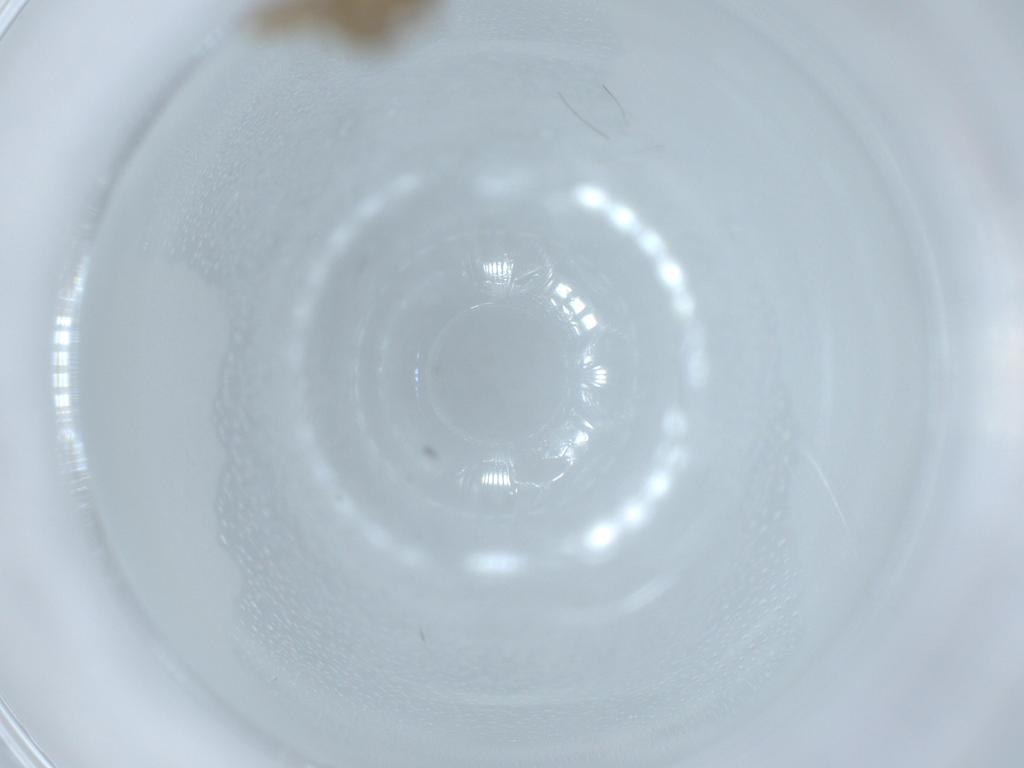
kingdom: Animalia
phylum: Arthropoda
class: Insecta
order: Diptera
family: Chironomidae
